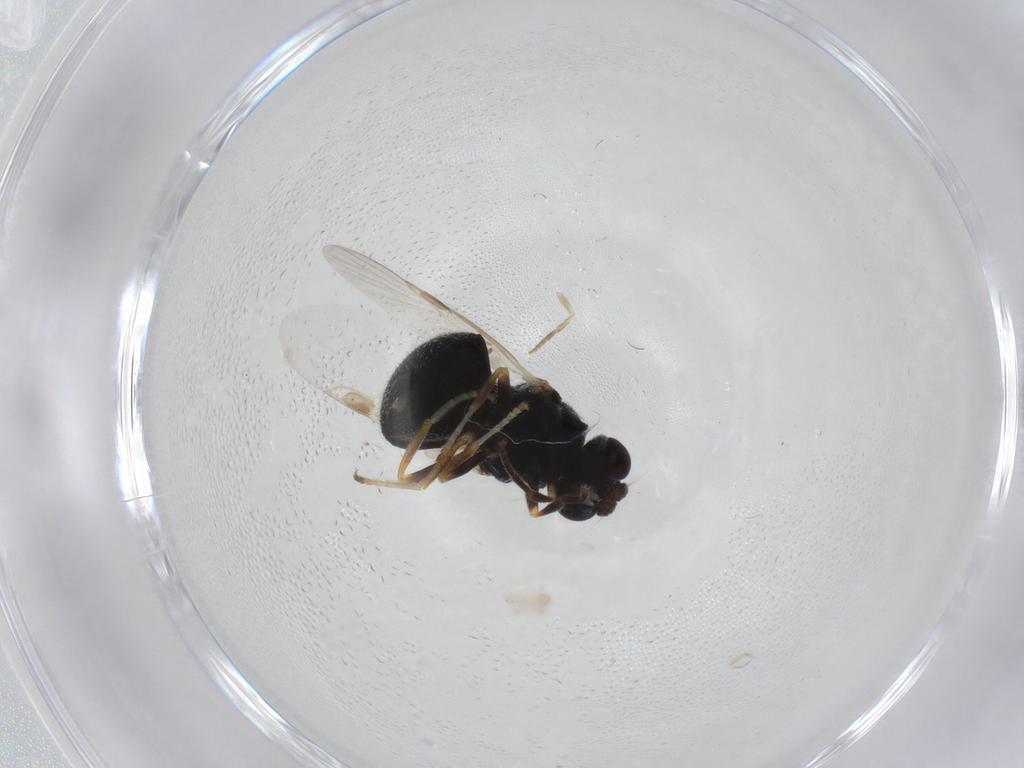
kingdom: Animalia
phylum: Arthropoda
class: Insecta
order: Diptera
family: Stratiomyidae
